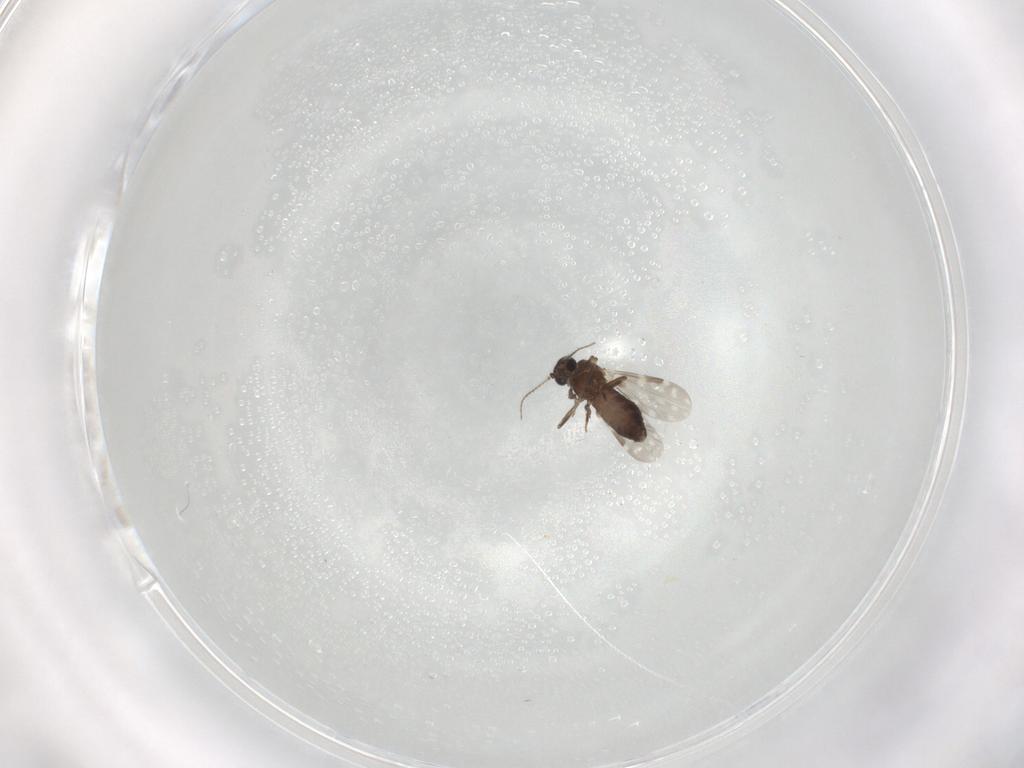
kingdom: Animalia
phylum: Arthropoda
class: Insecta
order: Diptera
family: Ceratopogonidae
